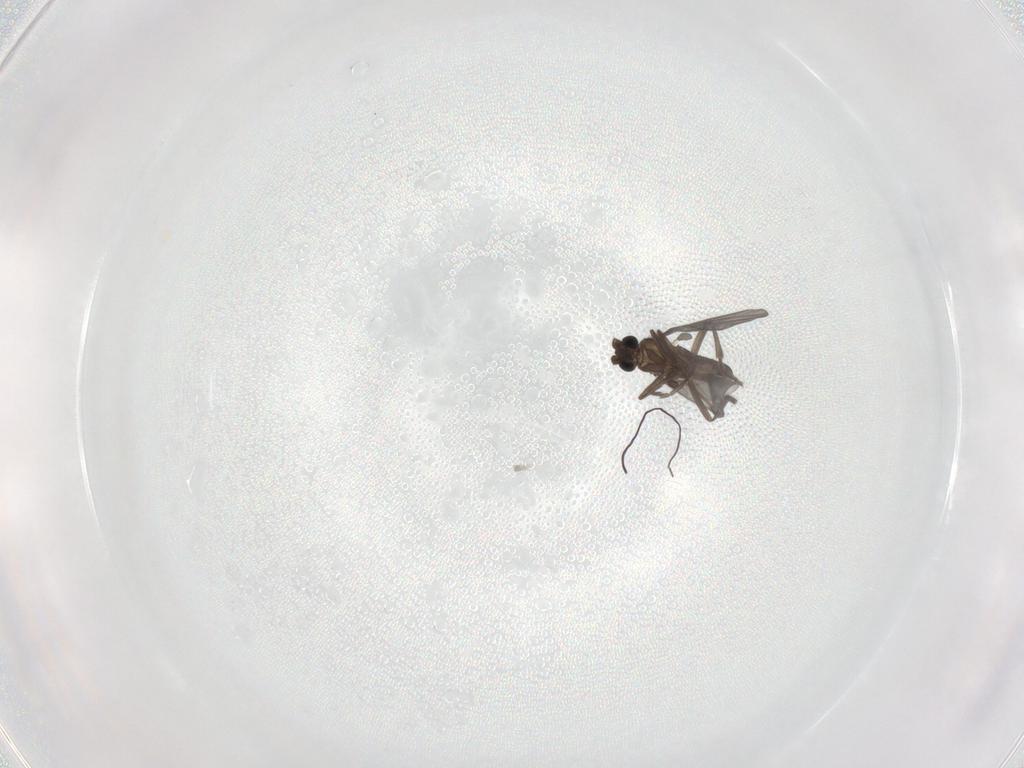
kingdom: Animalia
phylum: Arthropoda
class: Insecta
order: Diptera
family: Phoridae
